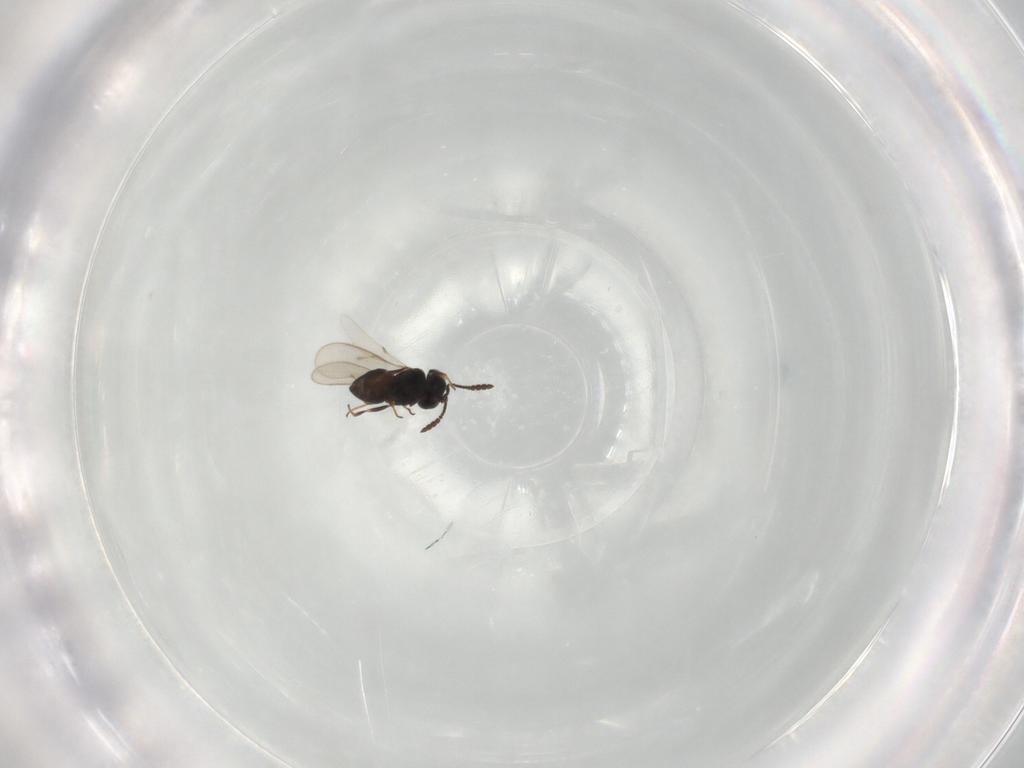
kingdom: Animalia
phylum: Arthropoda
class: Insecta
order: Hymenoptera
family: Scelionidae
